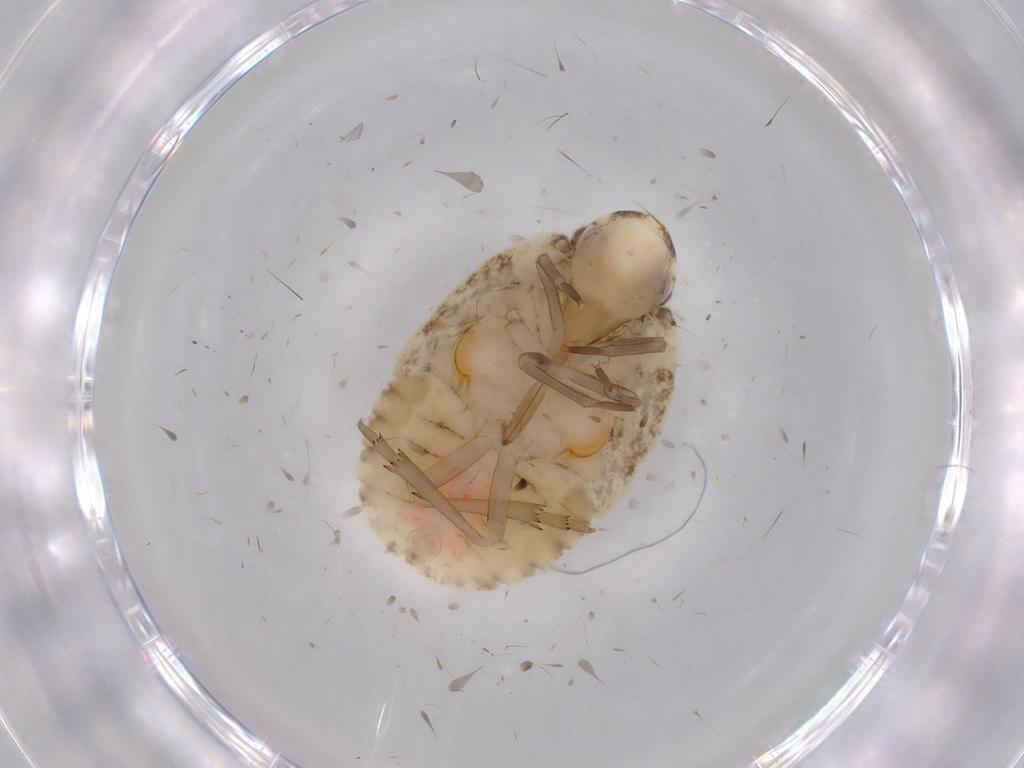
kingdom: Animalia
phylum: Arthropoda
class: Insecta
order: Hemiptera
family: Flatidae
